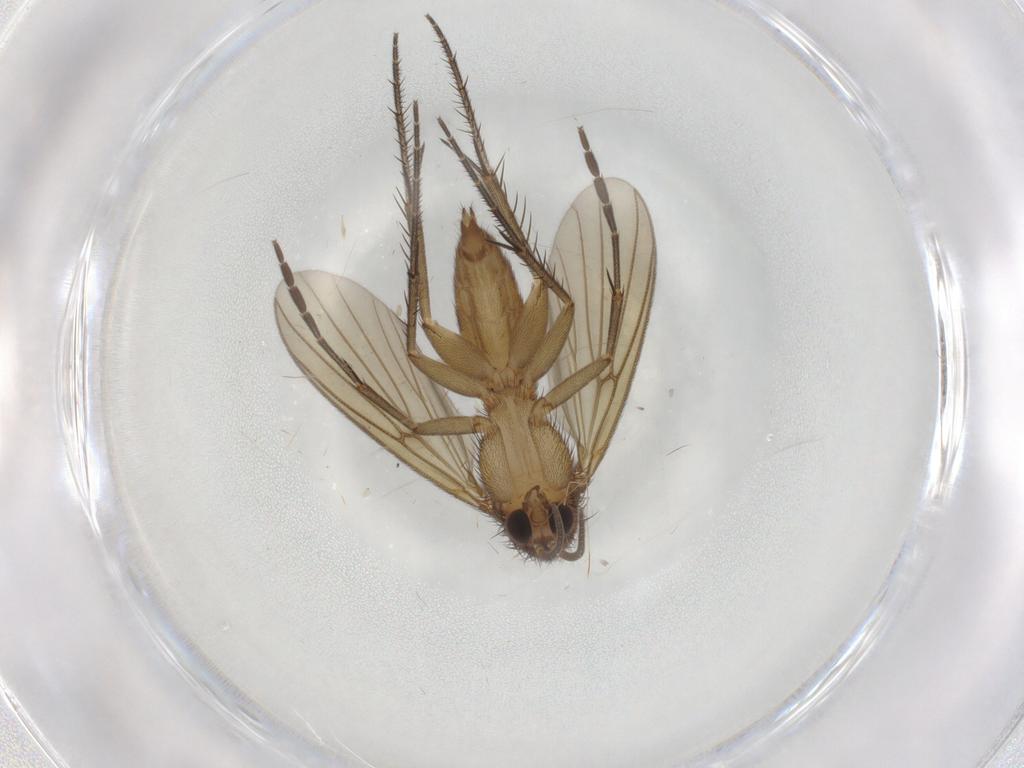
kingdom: Animalia
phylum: Arthropoda
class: Insecta
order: Diptera
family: Mycetophilidae
